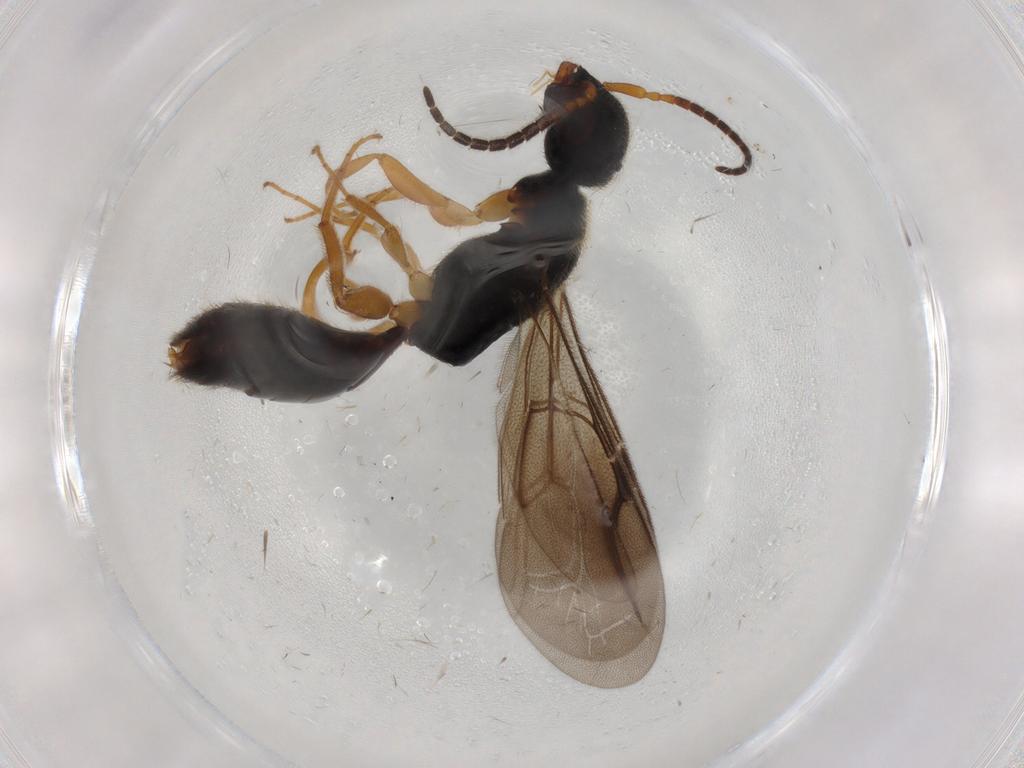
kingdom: Animalia
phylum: Arthropoda
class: Insecta
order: Hymenoptera
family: Bethylidae
